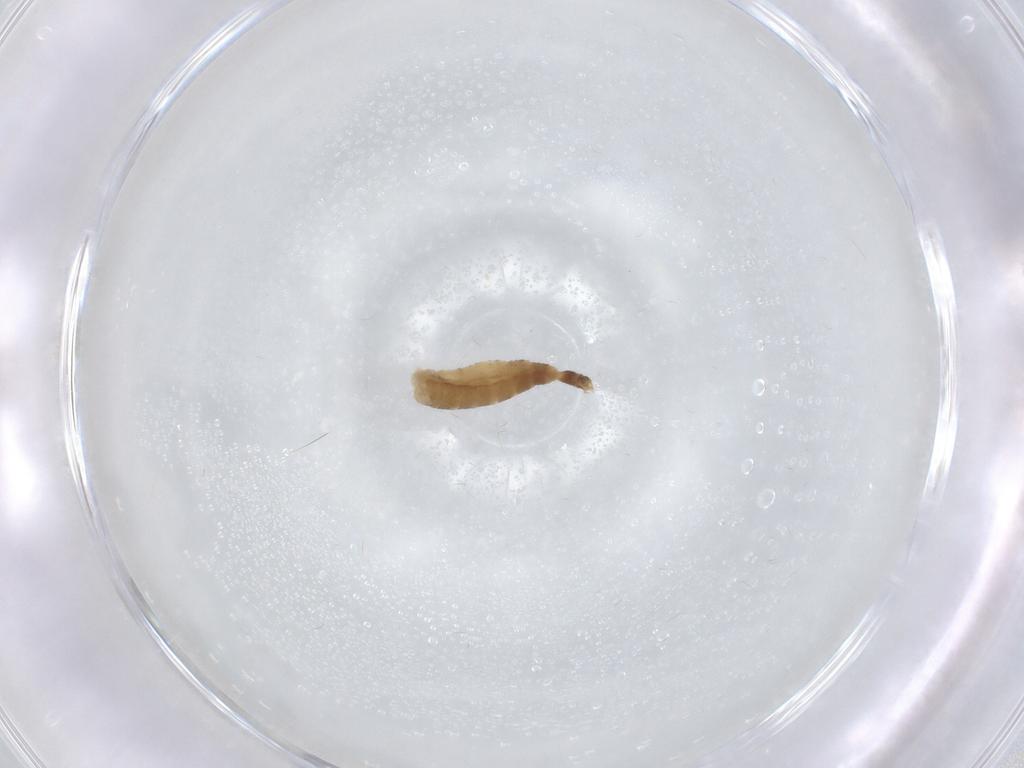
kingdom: Animalia
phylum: Arthropoda
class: Insecta
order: Diptera
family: Chironomidae
